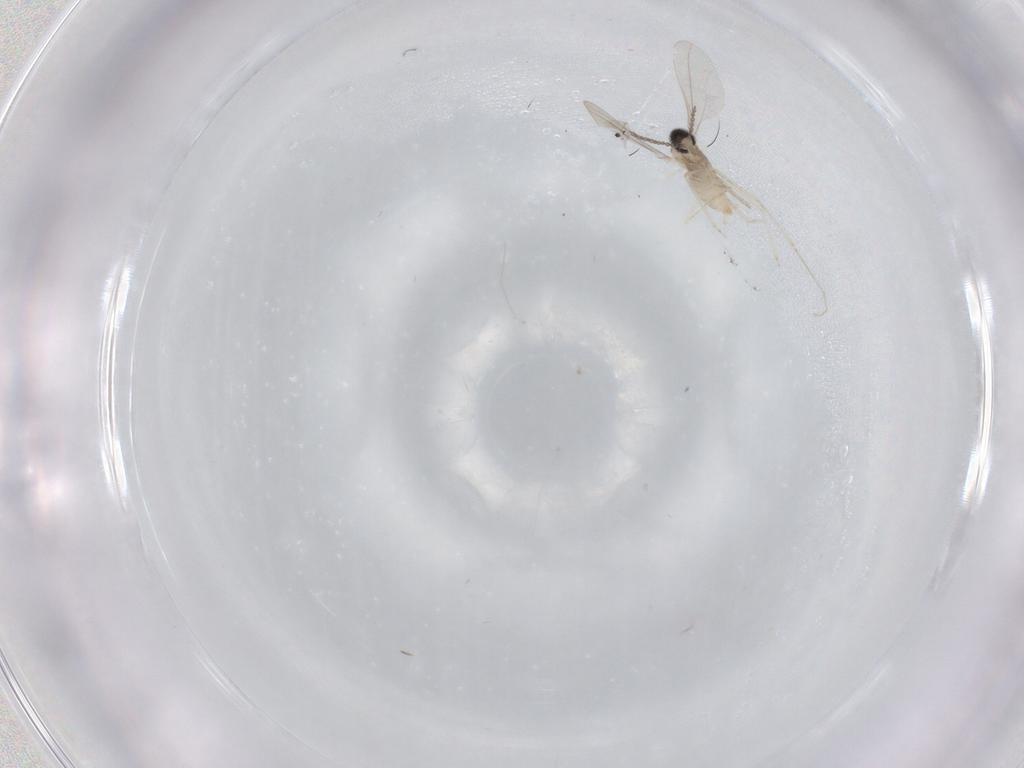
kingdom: Animalia
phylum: Arthropoda
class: Insecta
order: Diptera
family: Cecidomyiidae
